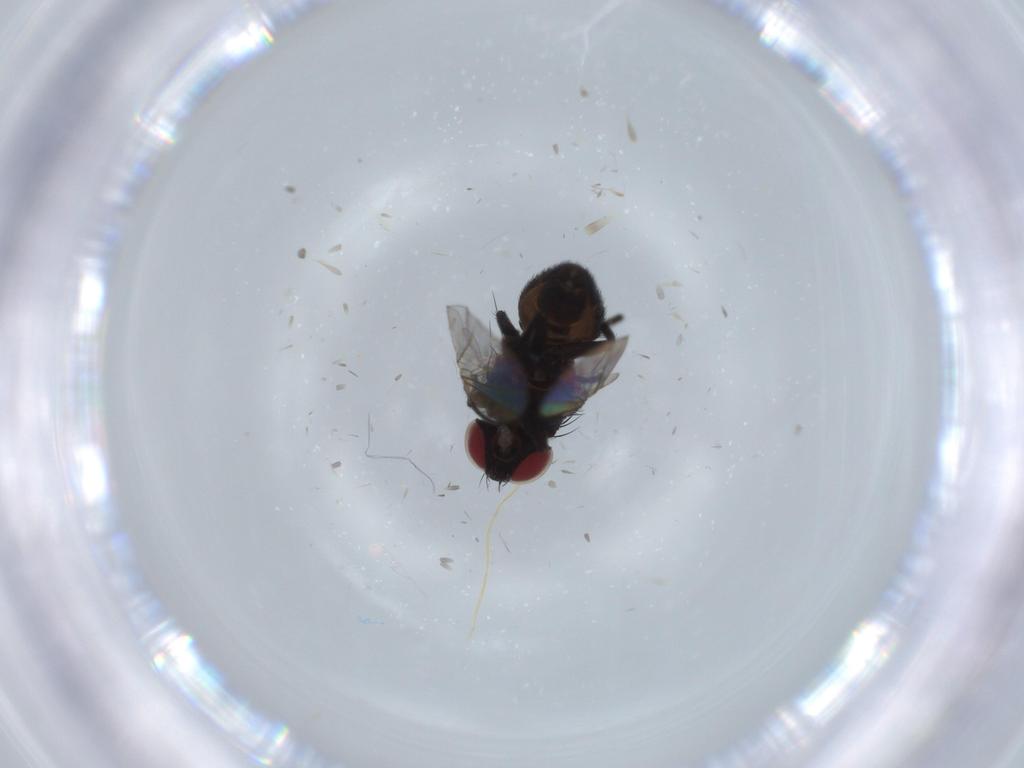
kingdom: Animalia
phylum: Arthropoda
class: Insecta
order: Diptera
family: Agromyzidae
